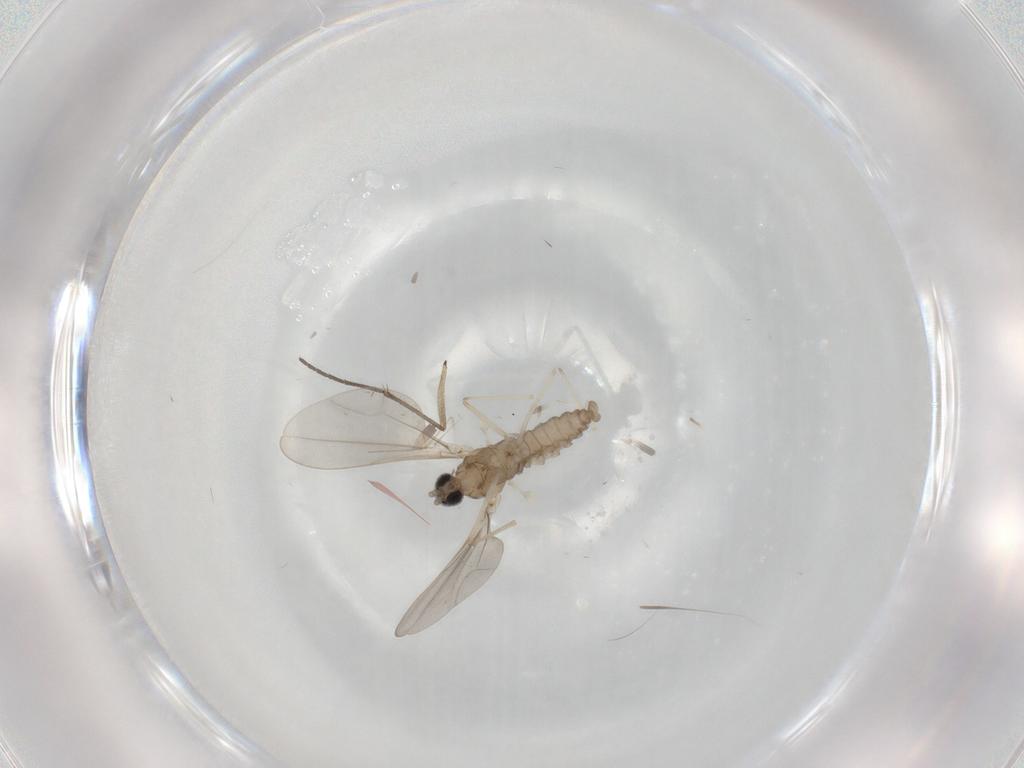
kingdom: Animalia
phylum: Arthropoda
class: Insecta
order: Diptera
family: Cecidomyiidae
